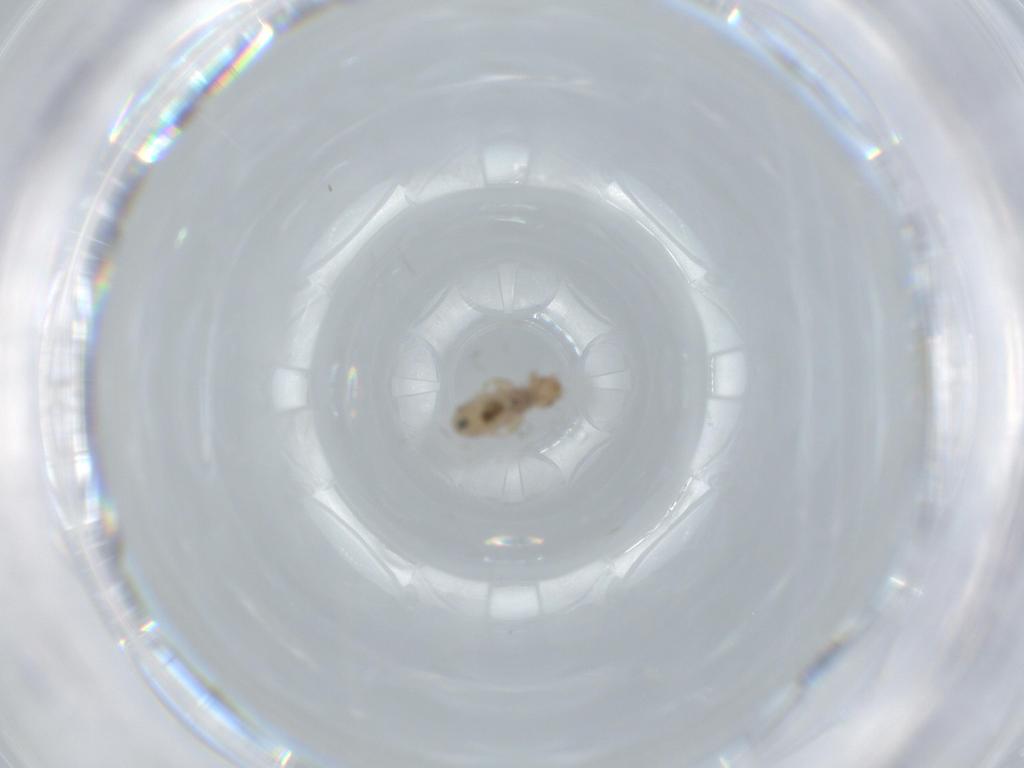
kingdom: Animalia
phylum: Arthropoda
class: Insecta
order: Psocodea
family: Liposcelididae
